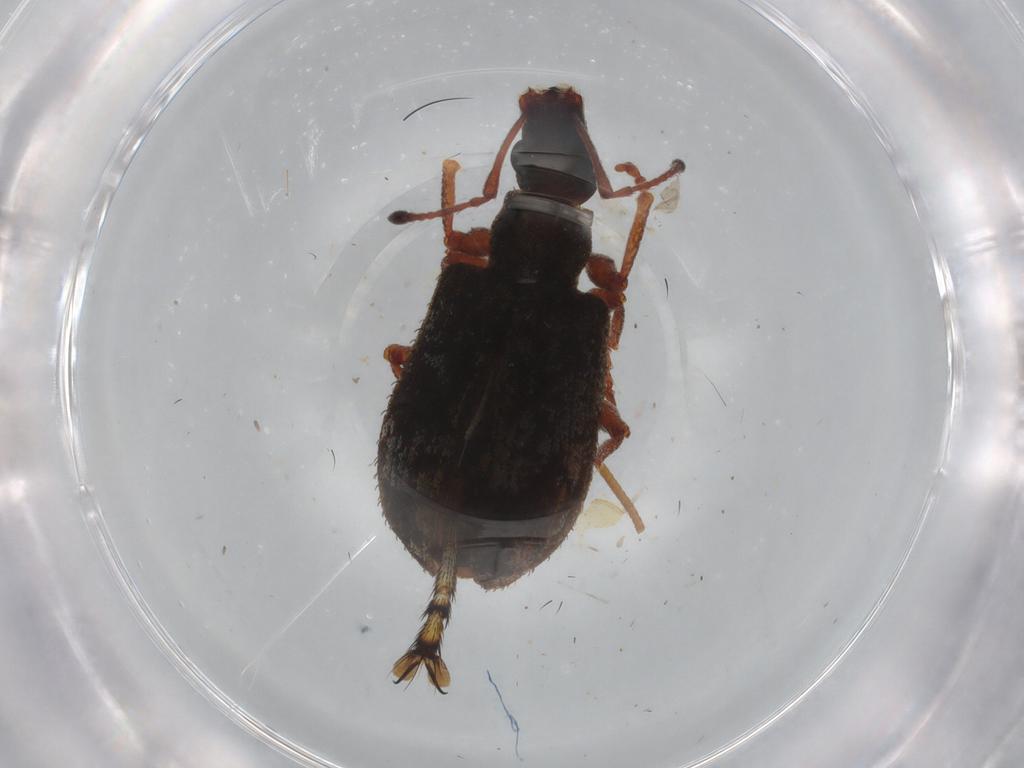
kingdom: Animalia
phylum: Arthropoda
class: Insecta
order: Coleoptera
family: Curculionidae
